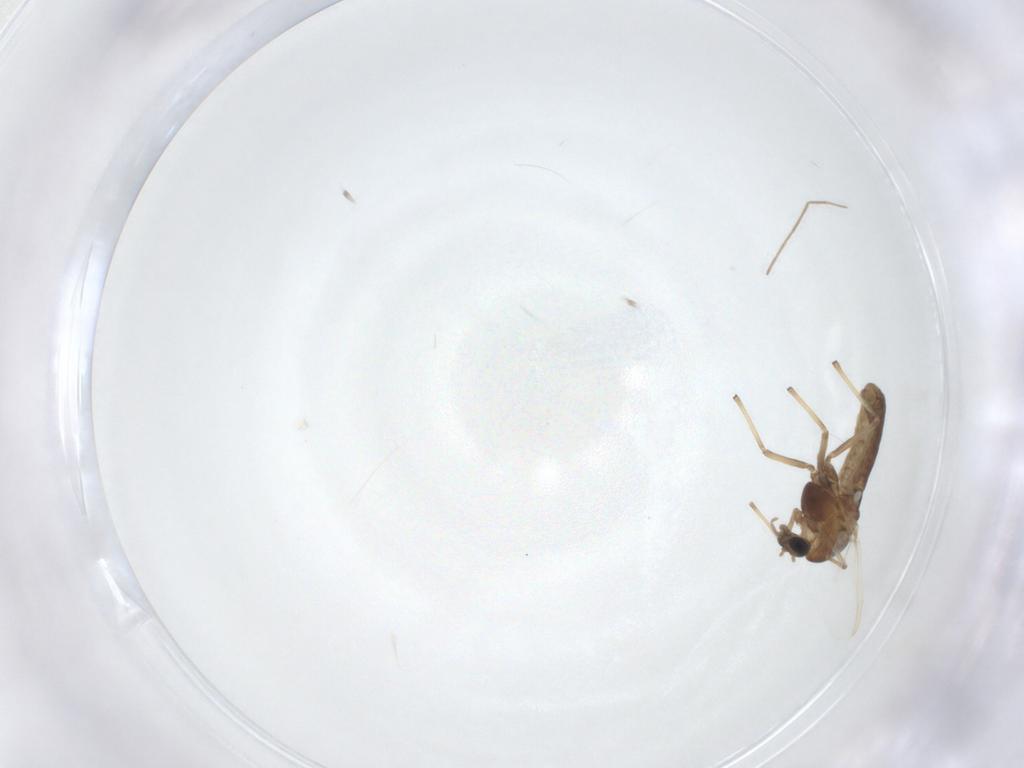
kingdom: Animalia
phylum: Arthropoda
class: Insecta
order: Diptera
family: Chironomidae
